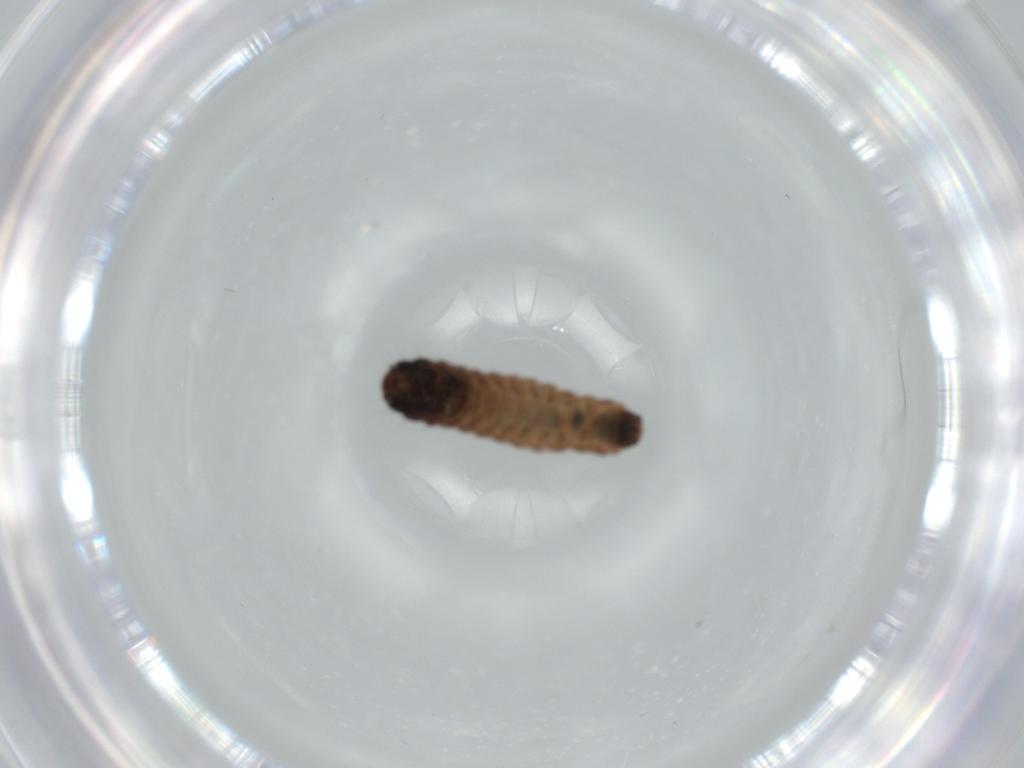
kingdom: Animalia
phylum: Arthropoda
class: Insecta
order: Lepidoptera
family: Psychidae
